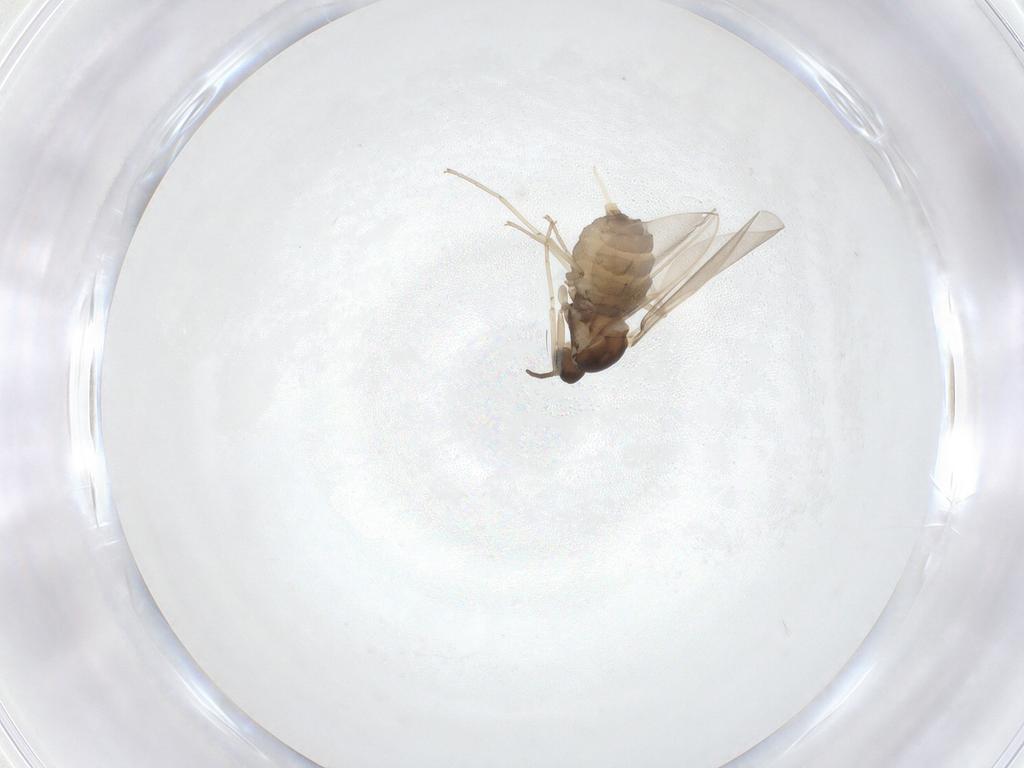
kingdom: Animalia
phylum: Arthropoda
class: Insecta
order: Diptera
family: Cecidomyiidae
